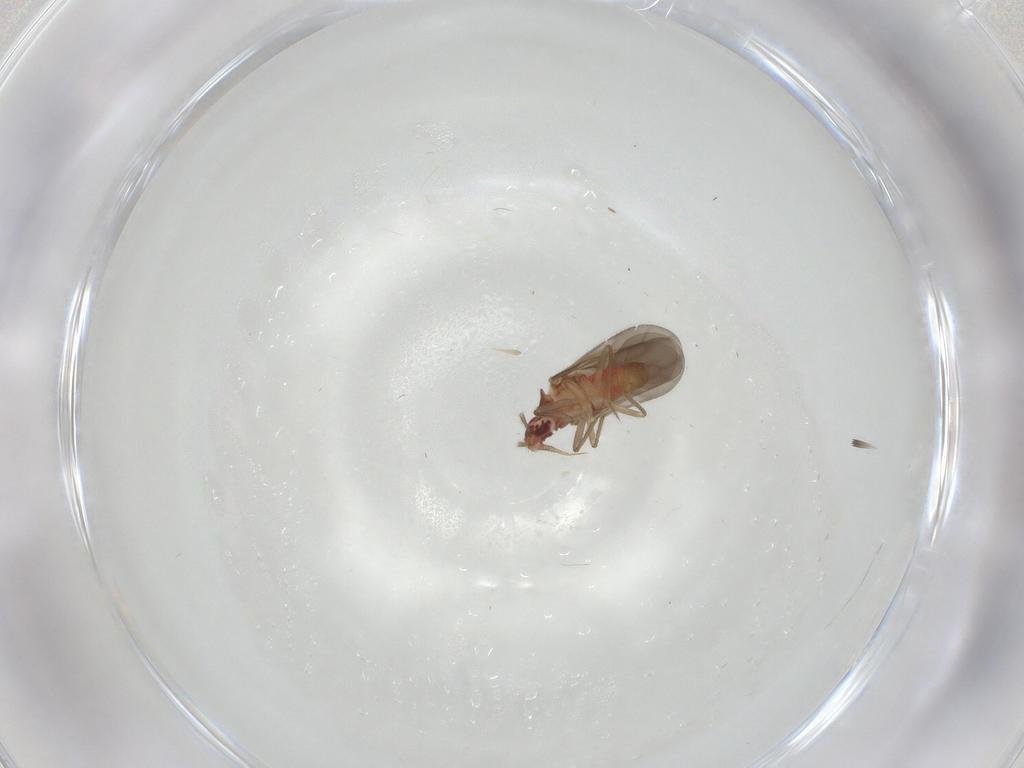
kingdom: Animalia
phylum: Arthropoda
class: Insecta
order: Hemiptera
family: Ceratocombidae
